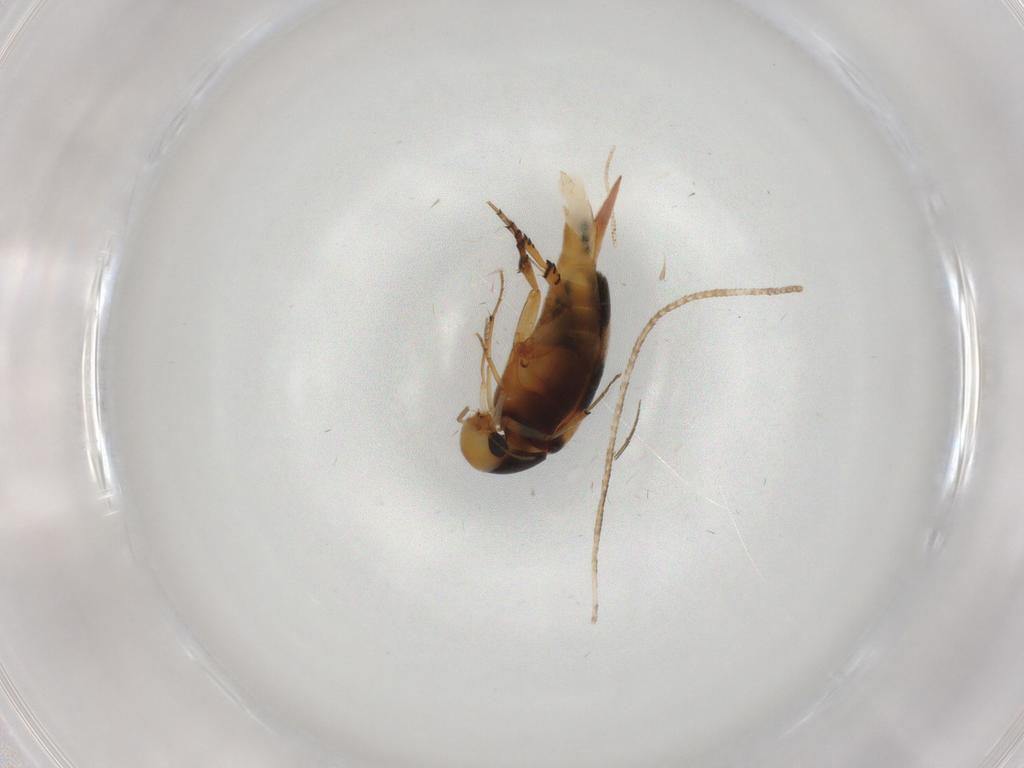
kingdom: Animalia
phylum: Arthropoda
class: Insecta
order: Coleoptera
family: Mordellidae
